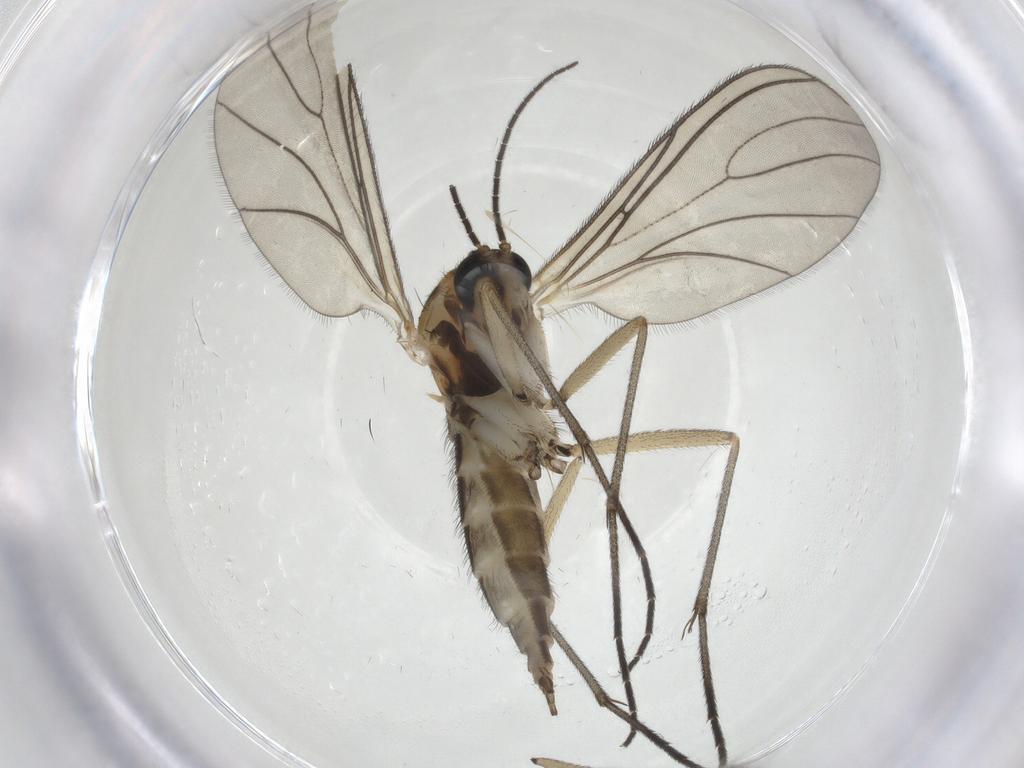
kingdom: Animalia
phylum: Arthropoda
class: Insecta
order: Diptera
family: Sciaridae
